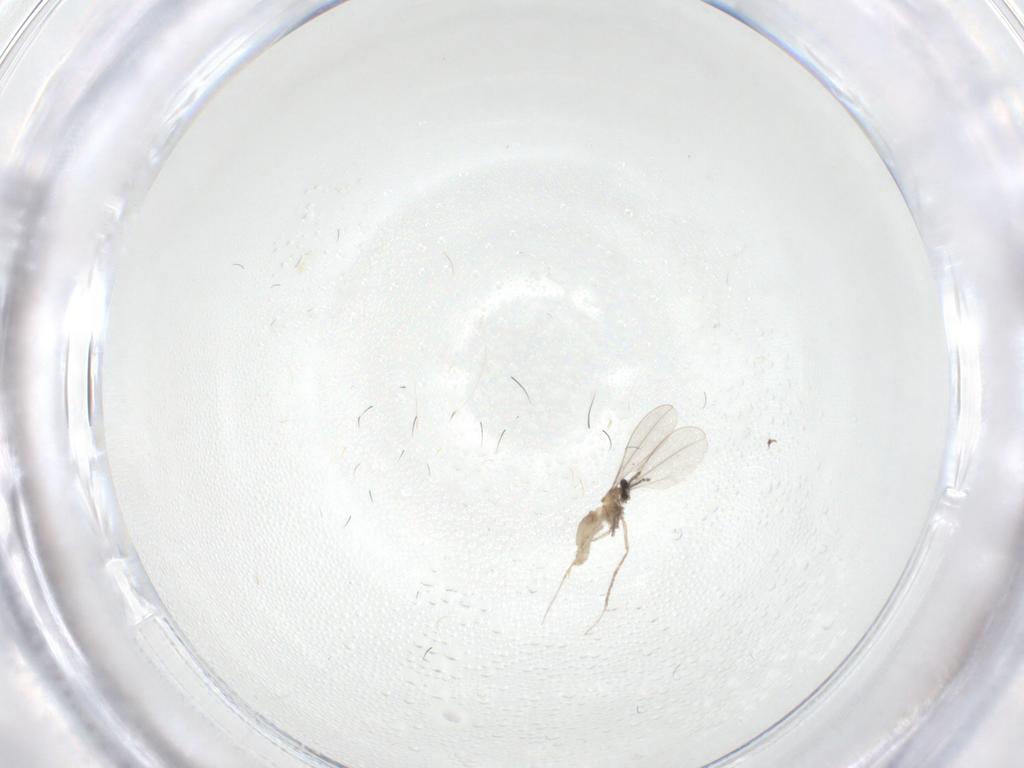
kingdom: Animalia
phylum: Arthropoda
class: Insecta
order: Diptera
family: Cecidomyiidae
